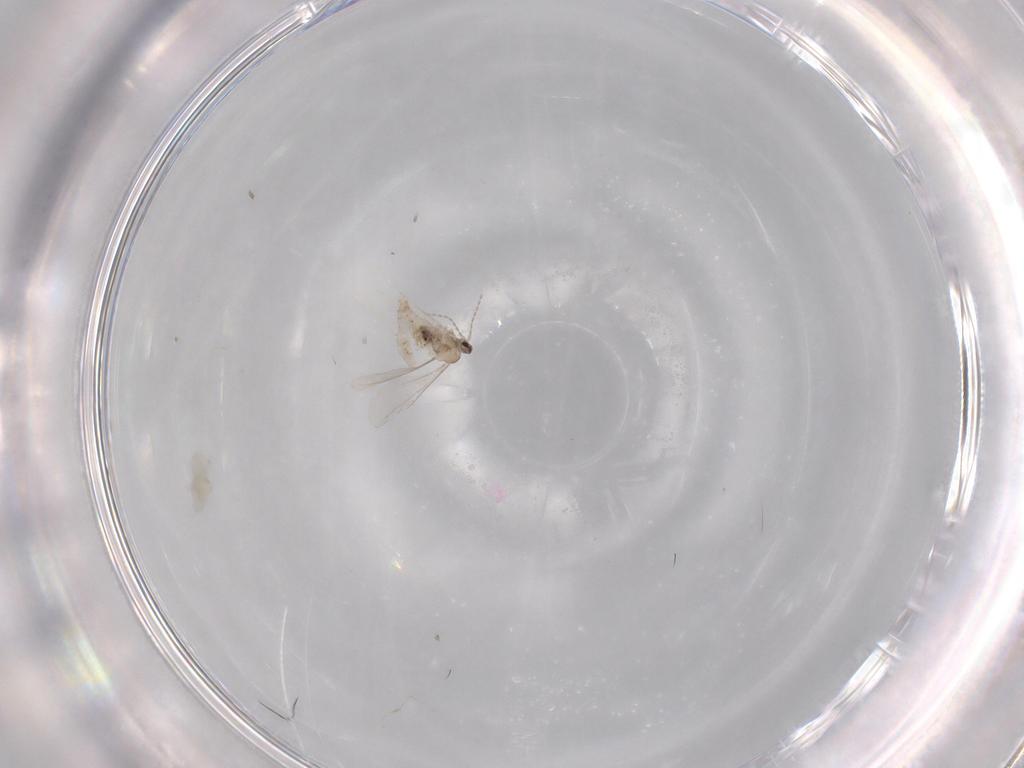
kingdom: Animalia
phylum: Arthropoda
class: Insecta
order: Diptera
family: Cecidomyiidae
